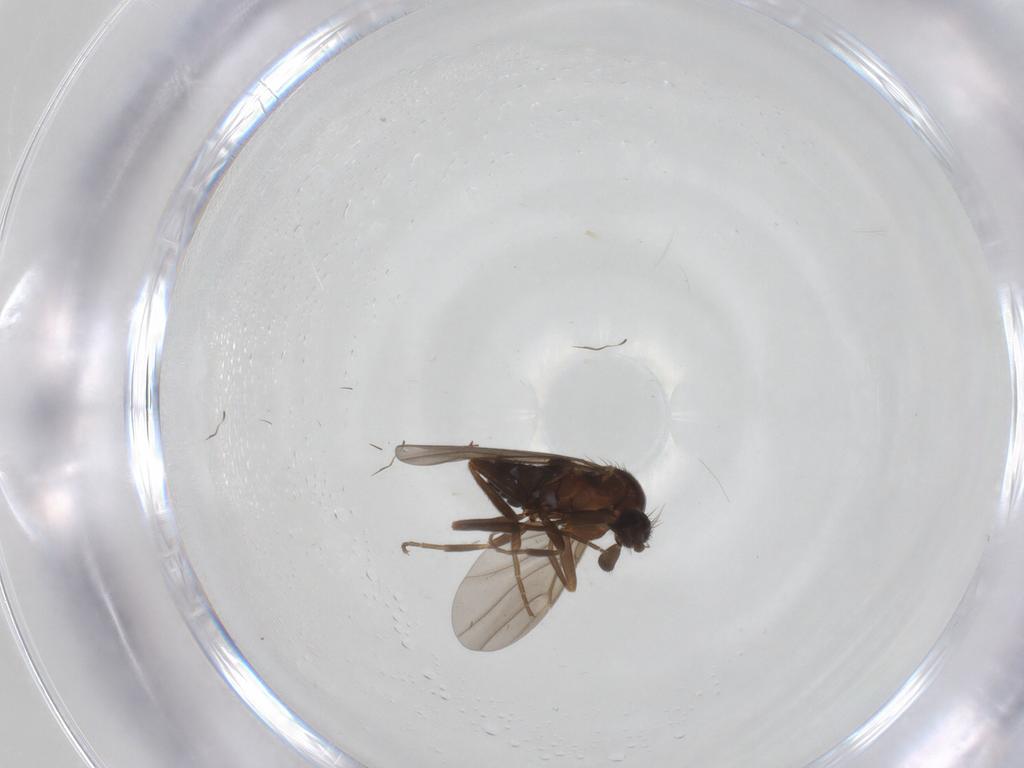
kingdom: Animalia
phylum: Arthropoda
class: Insecta
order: Diptera
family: Phoridae
